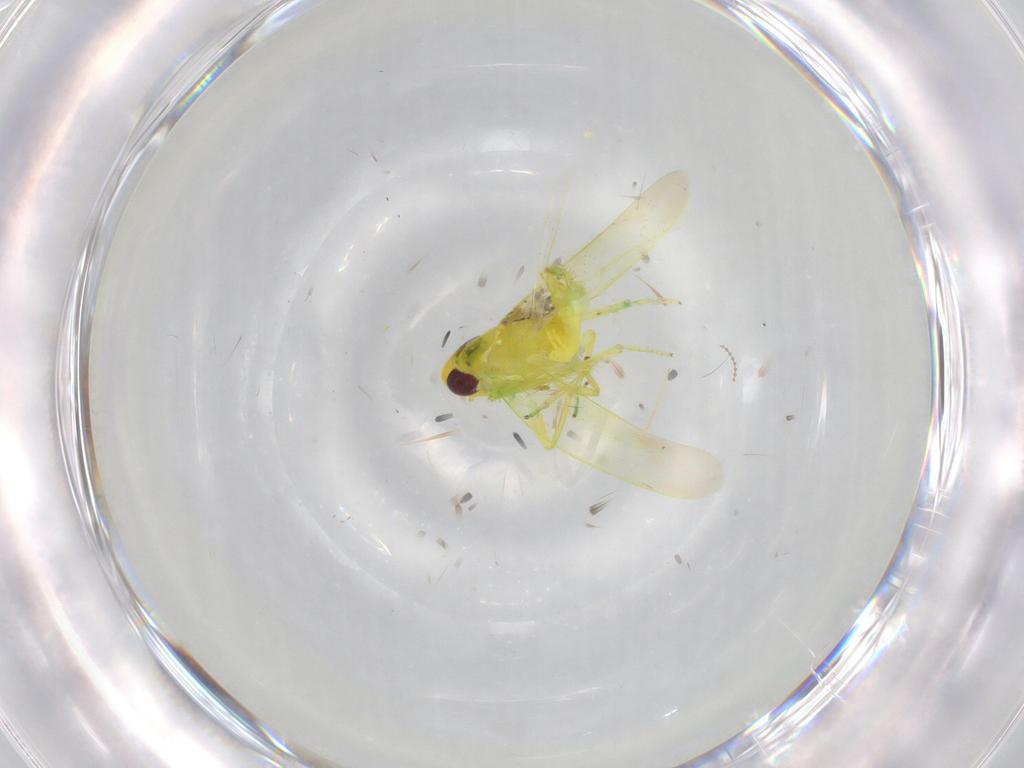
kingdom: Animalia
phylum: Arthropoda
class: Insecta
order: Hemiptera
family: Cicadellidae
